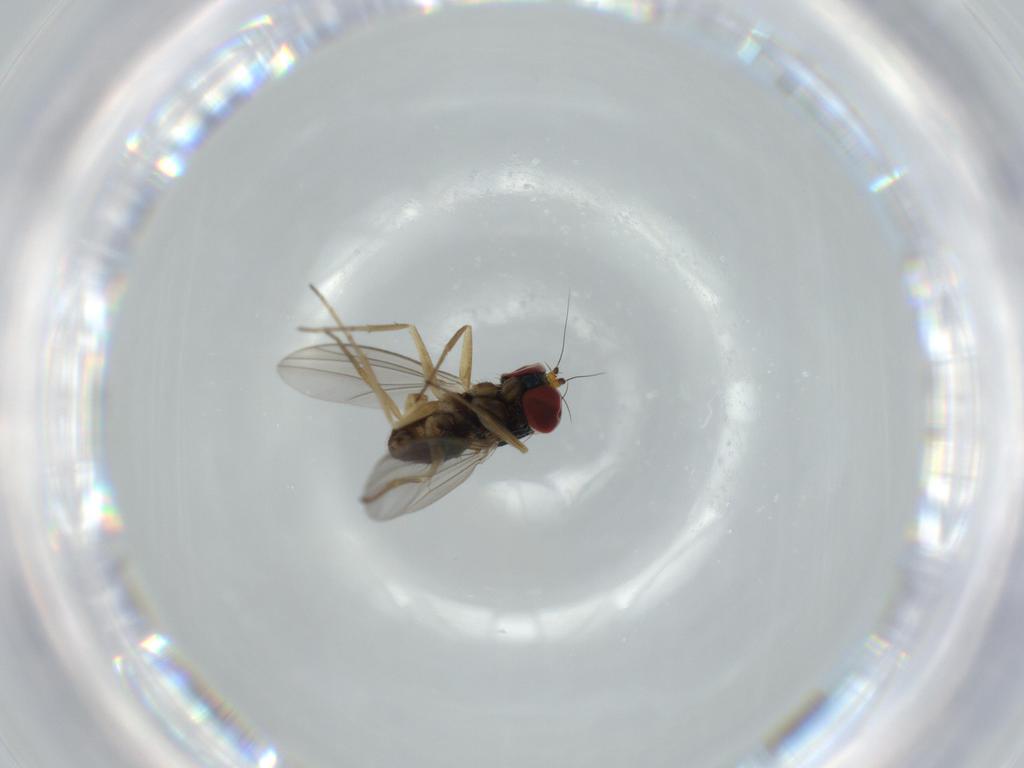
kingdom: Animalia
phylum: Arthropoda
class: Insecta
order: Diptera
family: Dolichopodidae
